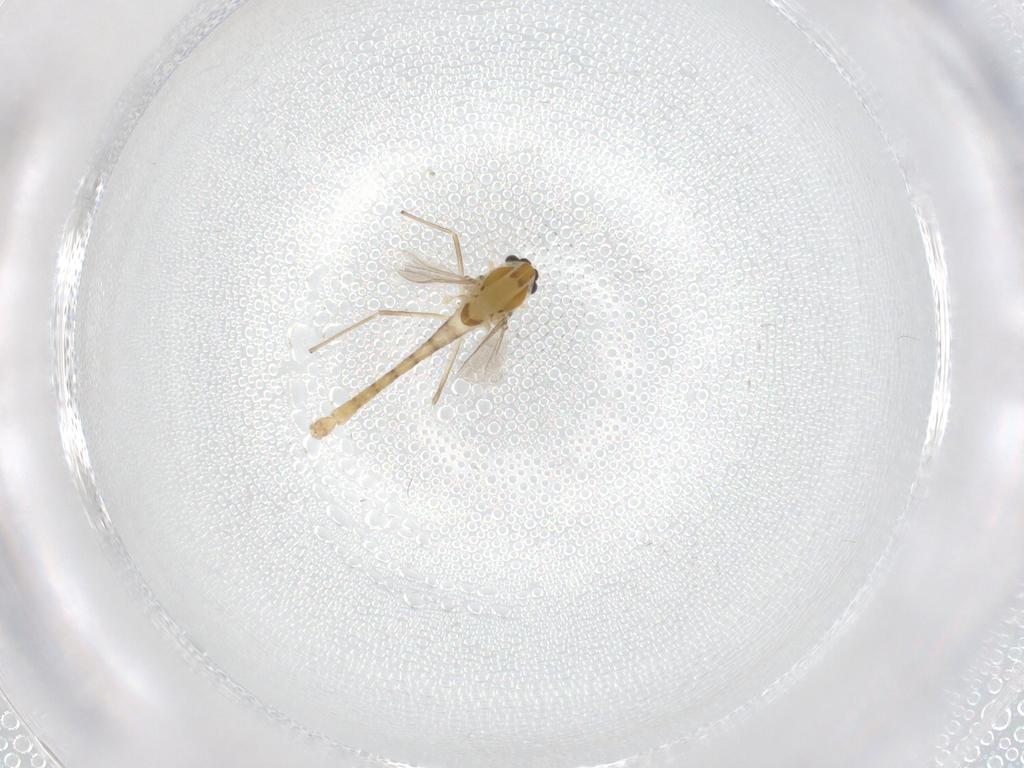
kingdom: Animalia
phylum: Arthropoda
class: Insecta
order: Diptera
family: Chironomidae
